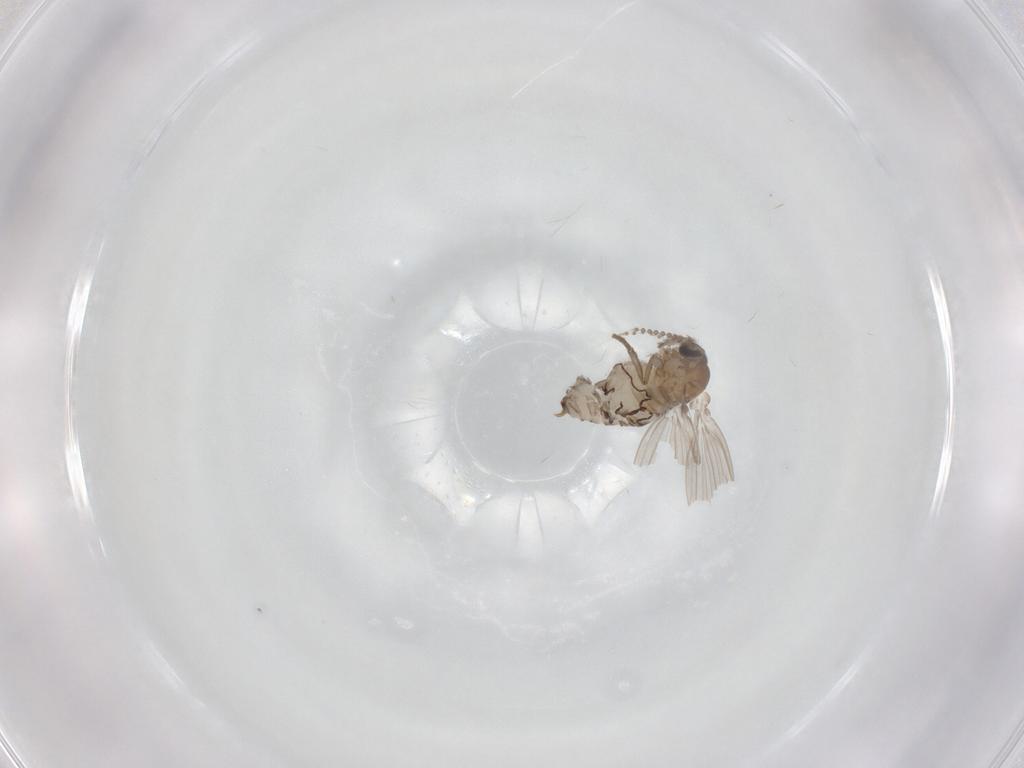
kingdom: Animalia
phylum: Arthropoda
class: Insecta
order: Diptera
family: Psychodidae
